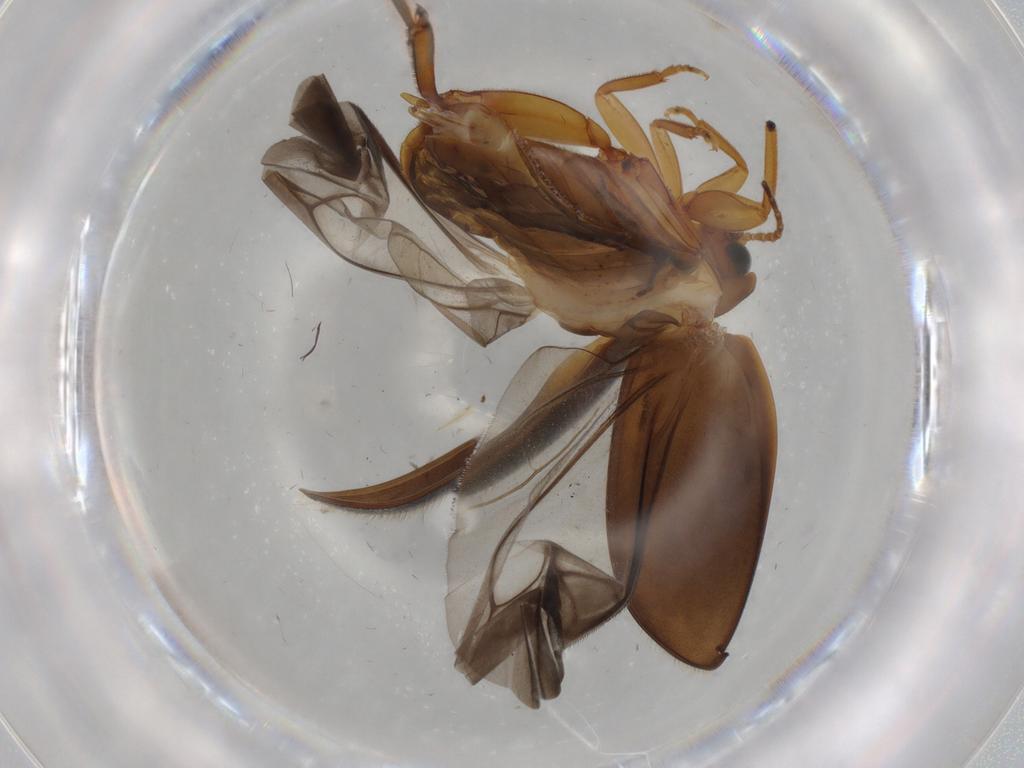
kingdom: Animalia
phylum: Arthropoda
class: Insecta
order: Coleoptera
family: Scirtidae
